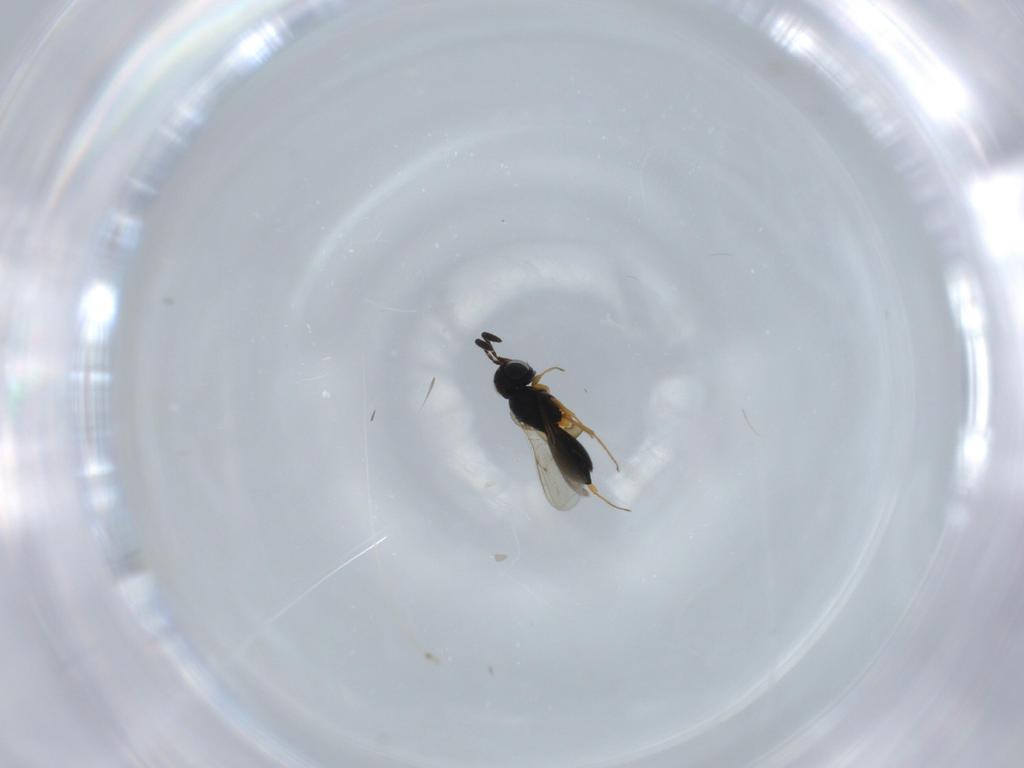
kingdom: Animalia
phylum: Arthropoda
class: Insecta
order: Hymenoptera
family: Scelionidae
